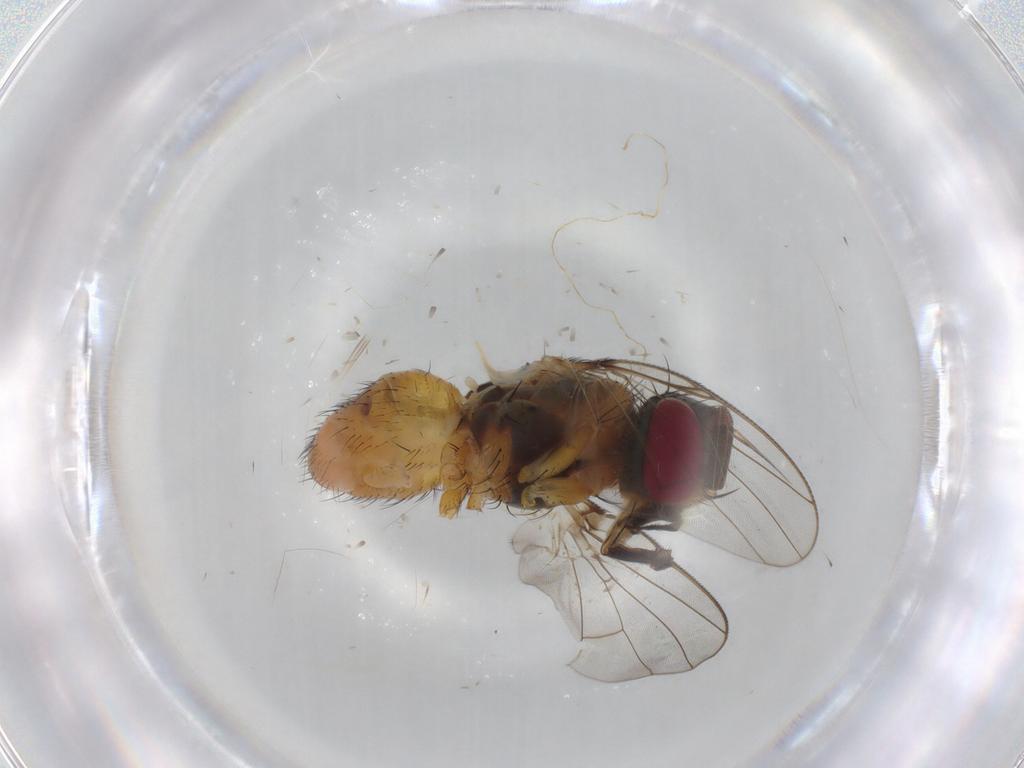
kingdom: Animalia
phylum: Arthropoda
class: Insecta
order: Diptera
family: Muscidae
